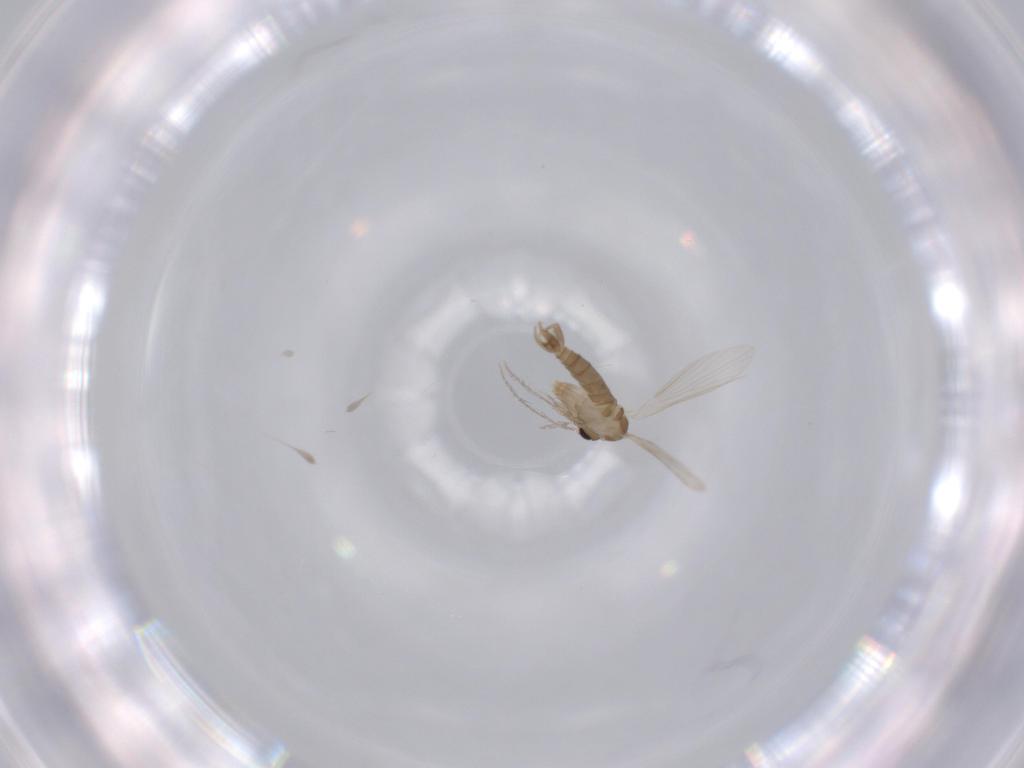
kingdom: Animalia
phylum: Arthropoda
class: Insecta
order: Diptera
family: Psychodidae
